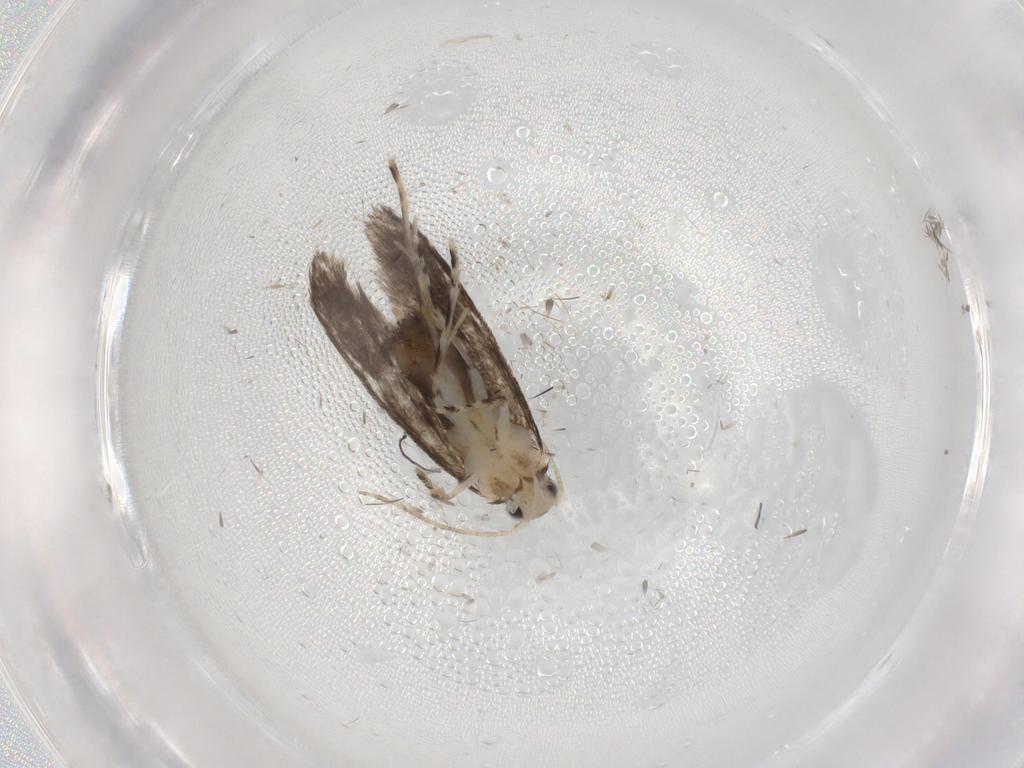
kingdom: Animalia
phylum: Arthropoda
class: Insecta
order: Lepidoptera
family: Tineidae
